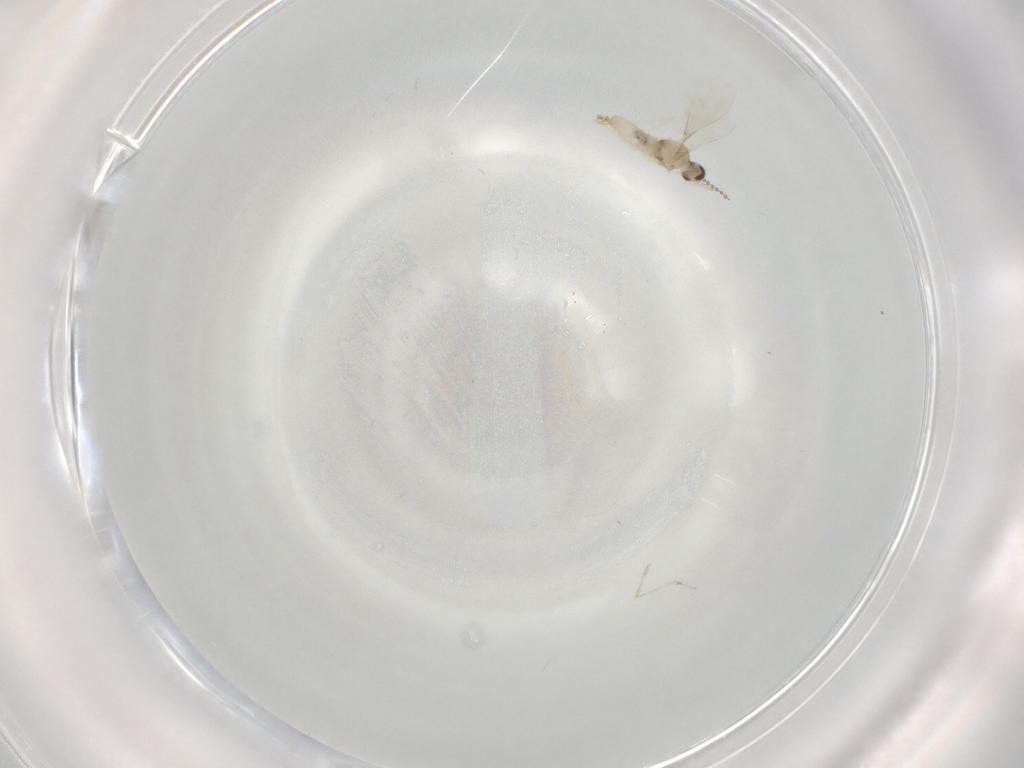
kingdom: Animalia
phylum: Arthropoda
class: Insecta
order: Diptera
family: Cecidomyiidae
